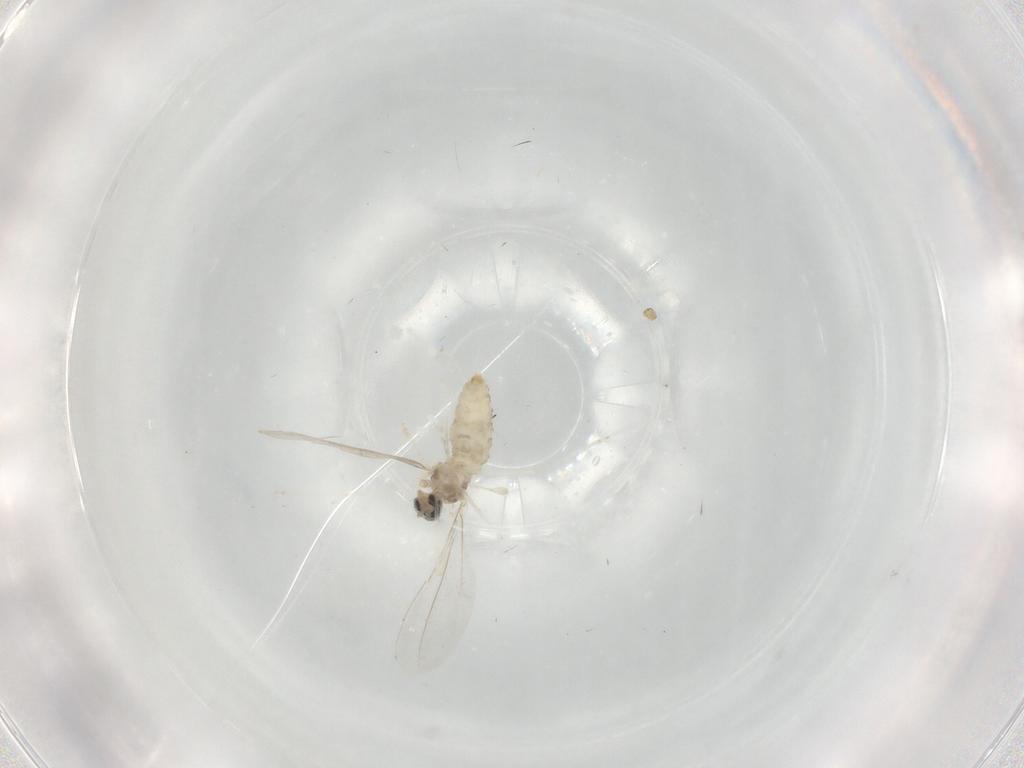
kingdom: Animalia
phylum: Arthropoda
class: Insecta
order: Diptera
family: Cecidomyiidae
